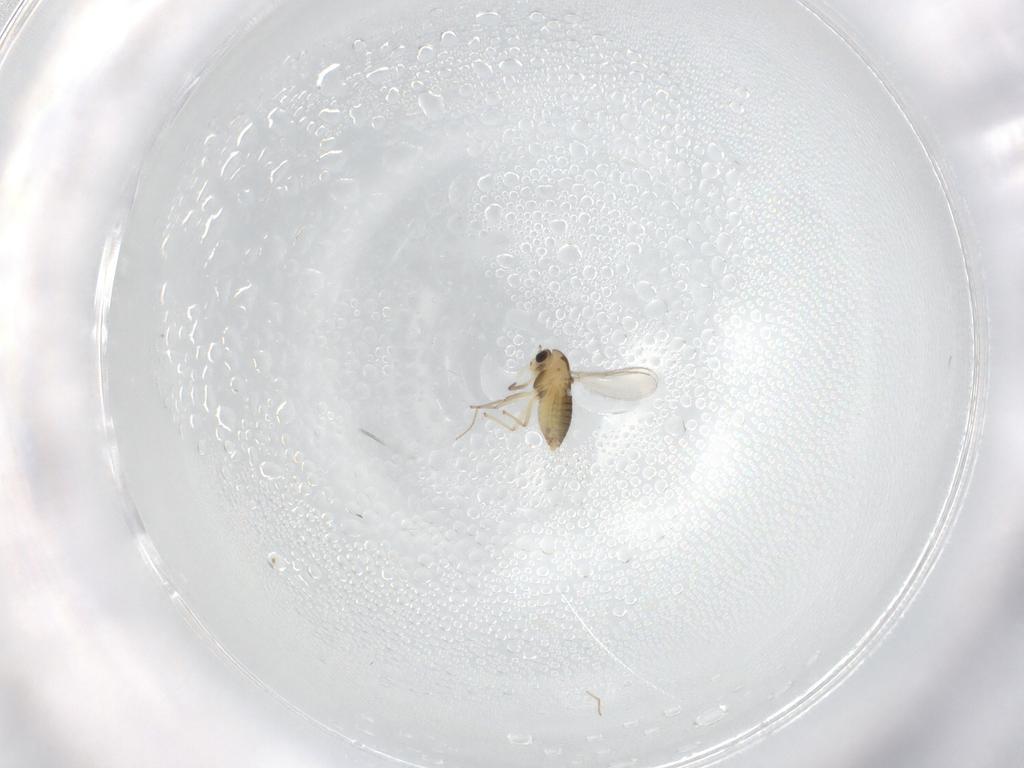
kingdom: Animalia
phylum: Arthropoda
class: Insecta
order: Diptera
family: Cecidomyiidae
